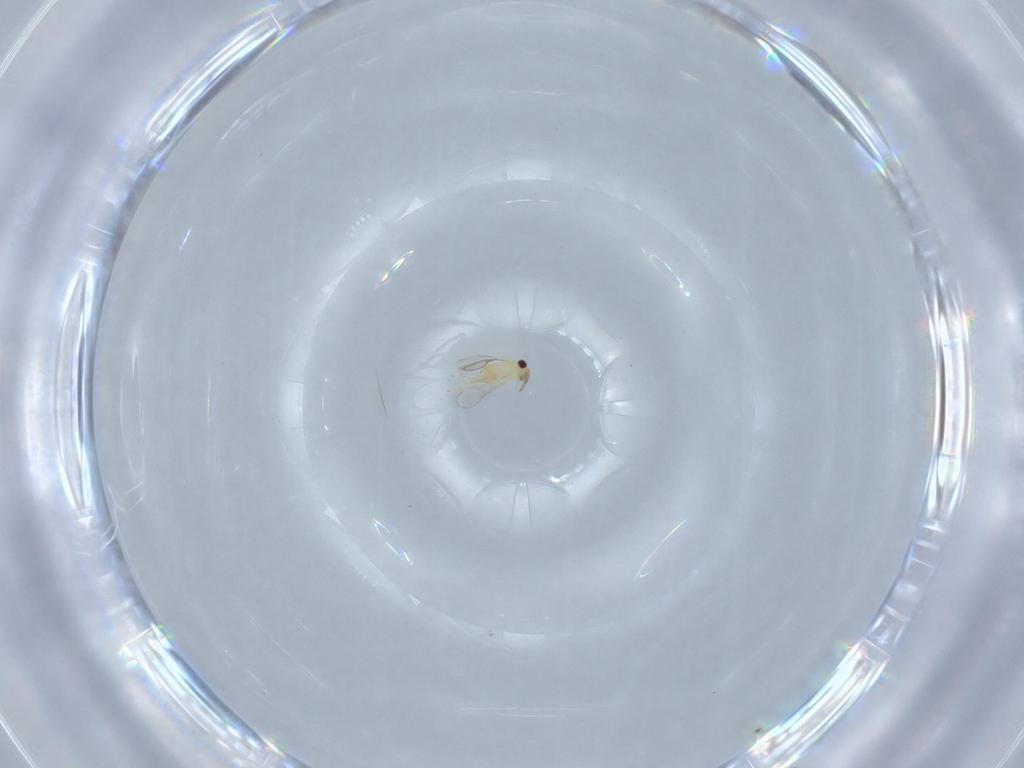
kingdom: Animalia
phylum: Arthropoda
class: Insecta
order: Hymenoptera
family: Aphelinidae
